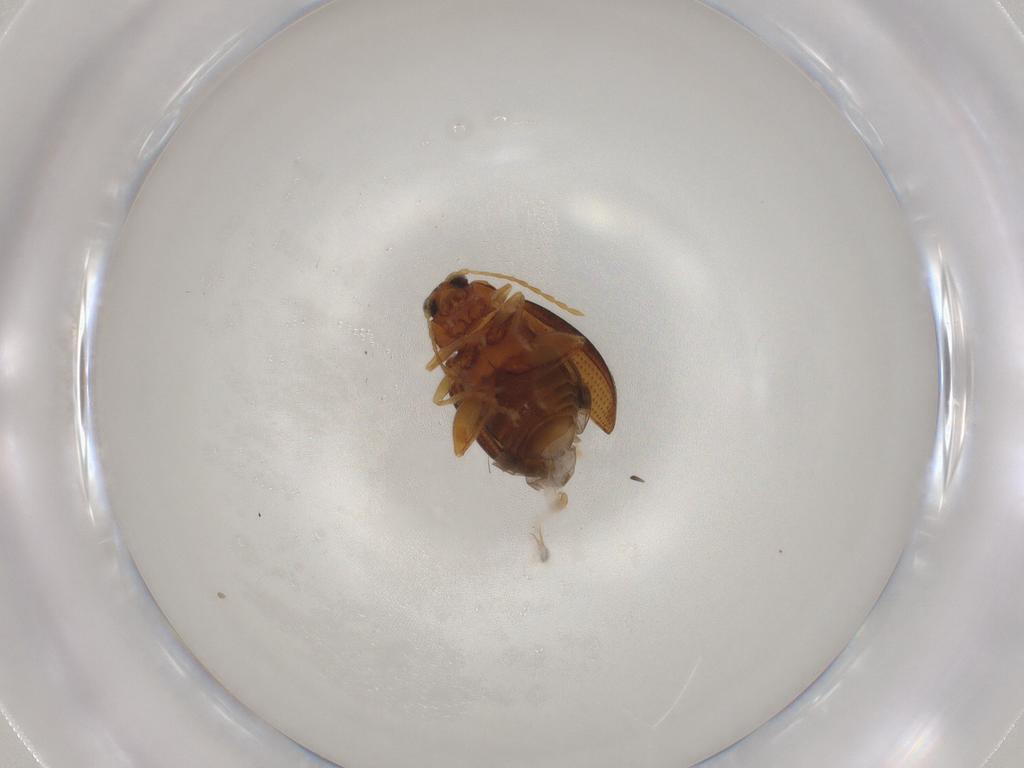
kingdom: Animalia
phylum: Arthropoda
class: Insecta
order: Coleoptera
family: Chrysomelidae
